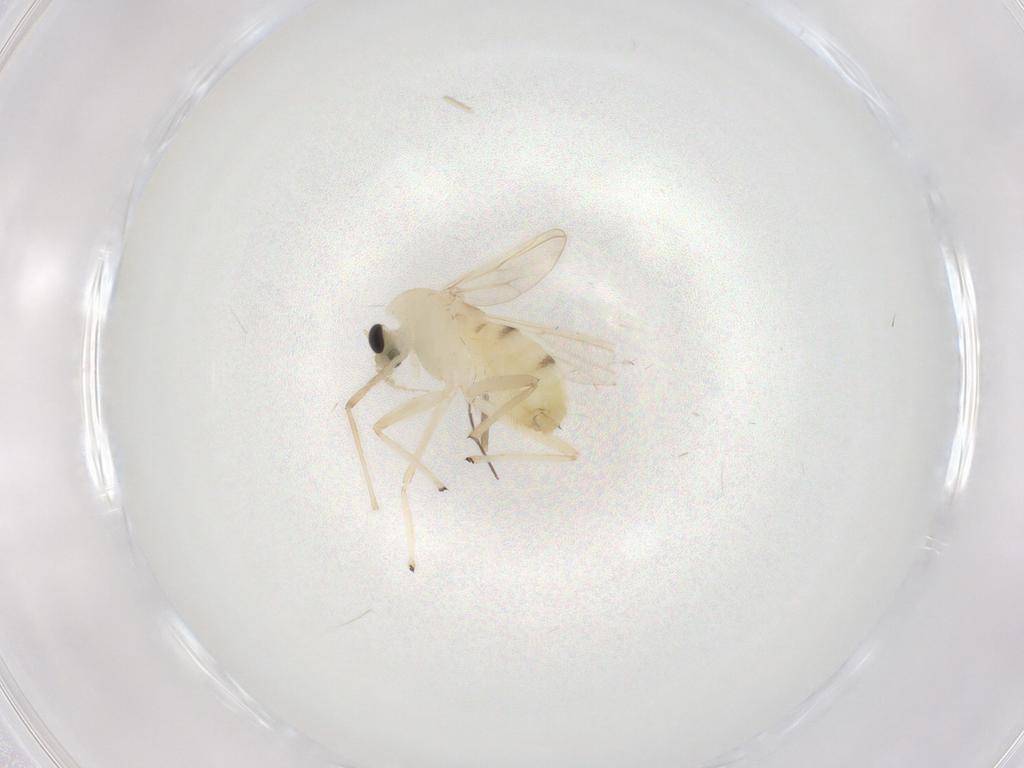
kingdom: Animalia
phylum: Arthropoda
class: Insecta
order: Diptera
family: Chironomidae
